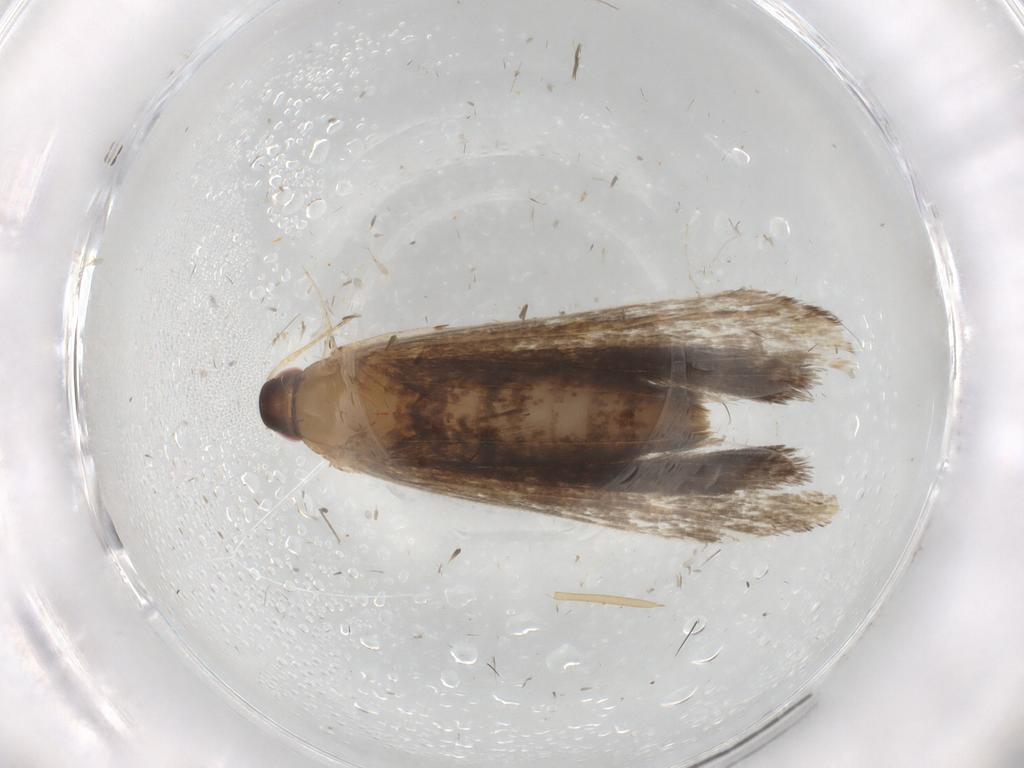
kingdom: Animalia
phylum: Arthropoda
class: Insecta
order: Lepidoptera
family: Gelechiidae
